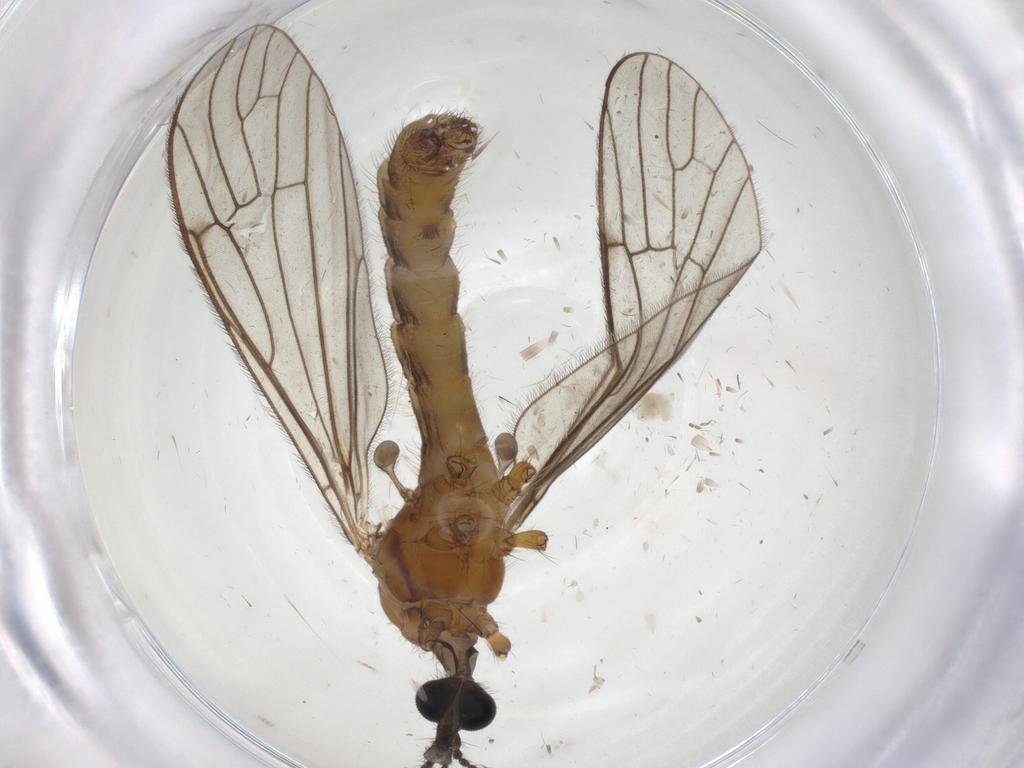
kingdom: Animalia
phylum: Arthropoda
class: Insecta
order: Diptera
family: Limoniidae
